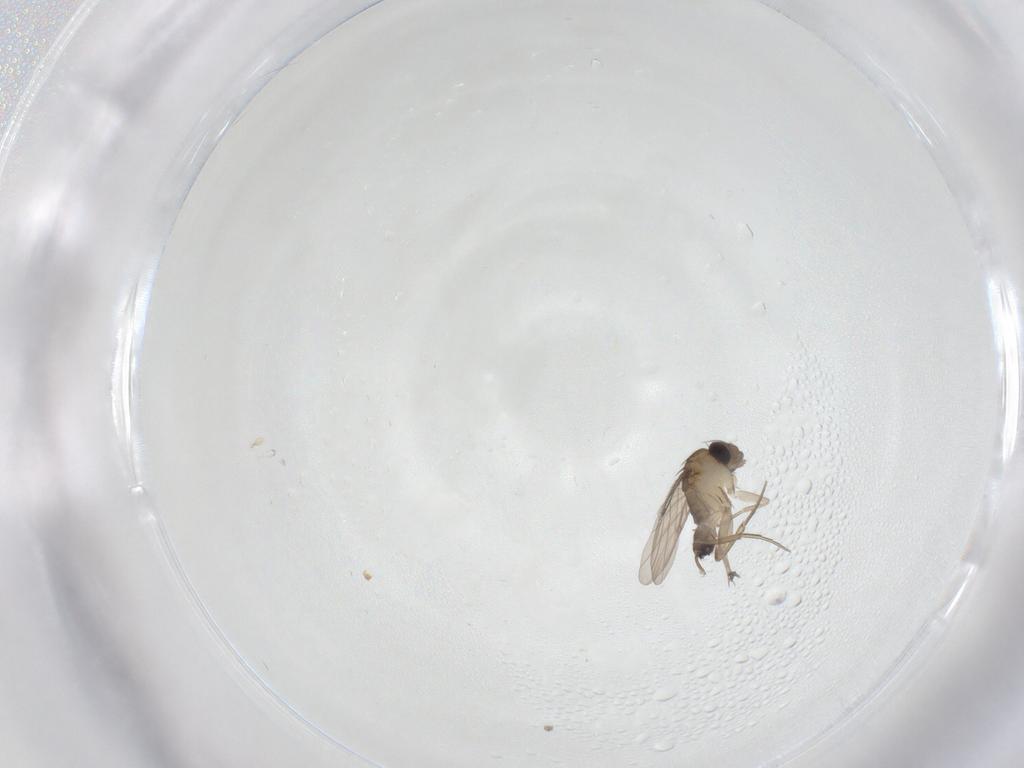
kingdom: Animalia
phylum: Arthropoda
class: Insecta
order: Diptera
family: Phoridae
